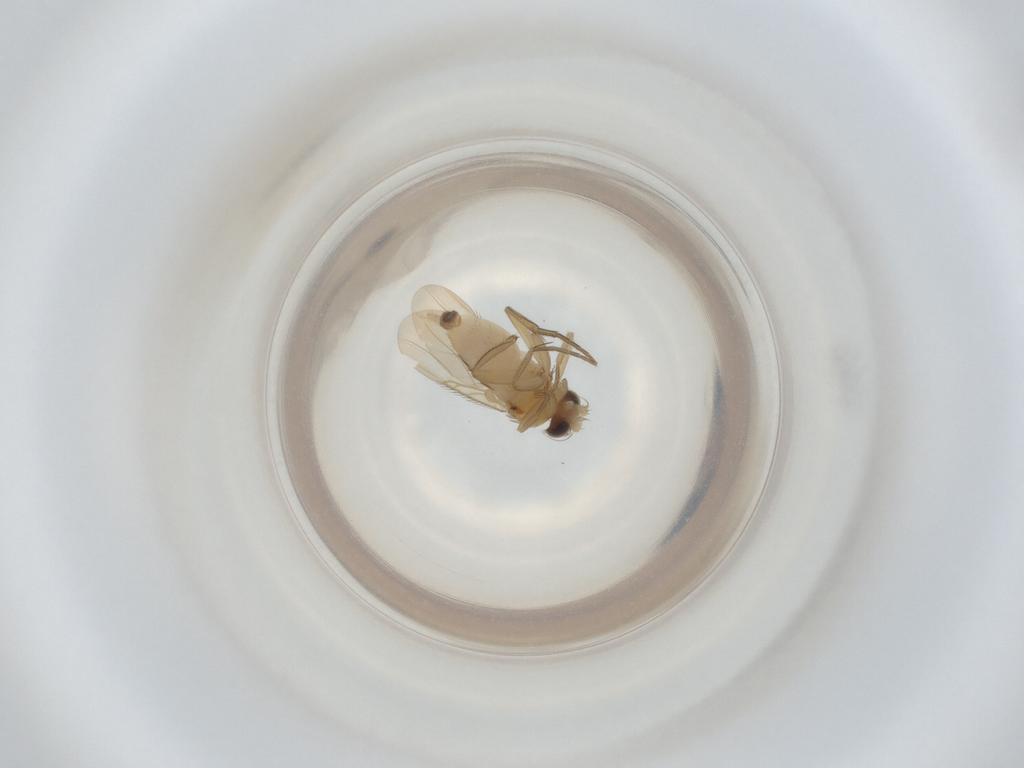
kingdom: Animalia
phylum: Arthropoda
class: Insecta
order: Diptera
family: Phoridae
